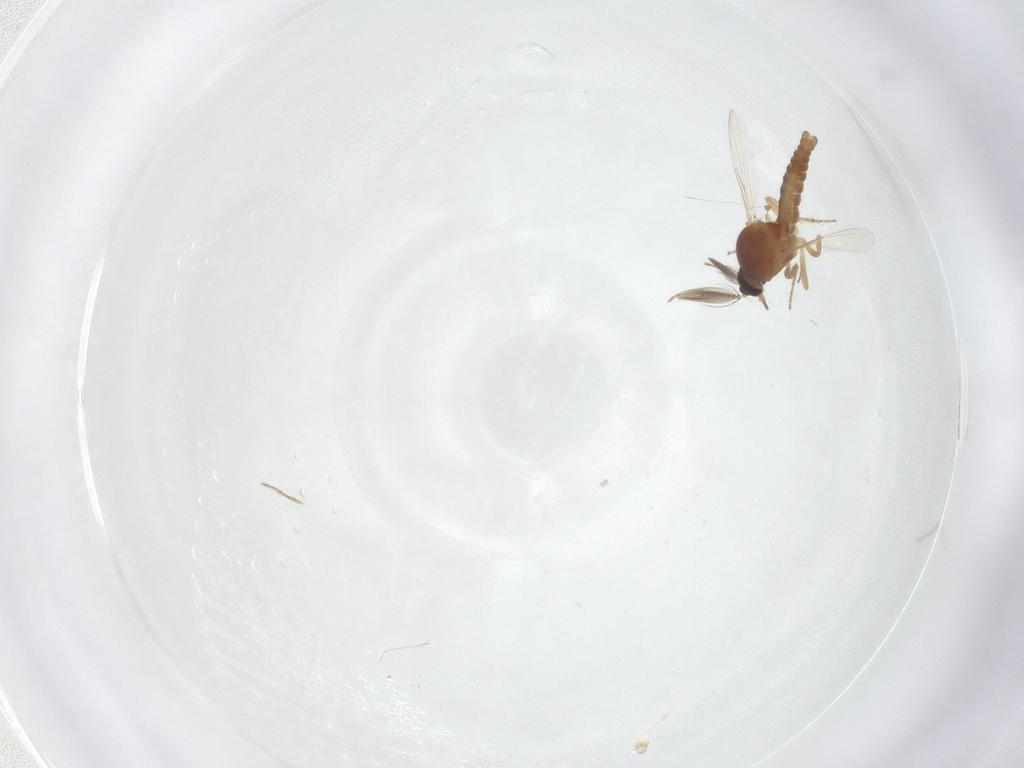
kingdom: Animalia
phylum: Arthropoda
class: Insecta
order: Diptera
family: Ceratopogonidae
